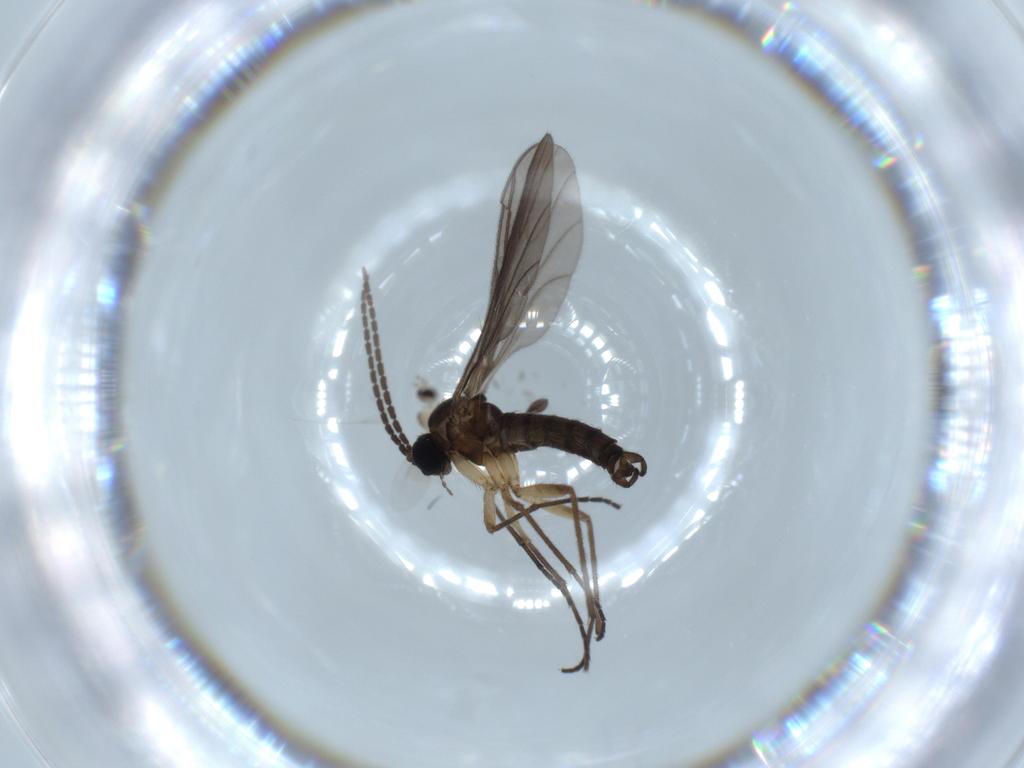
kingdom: Animalia
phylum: Arthropoda
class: Insecta
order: Diptera
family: Cecidomyiidae
